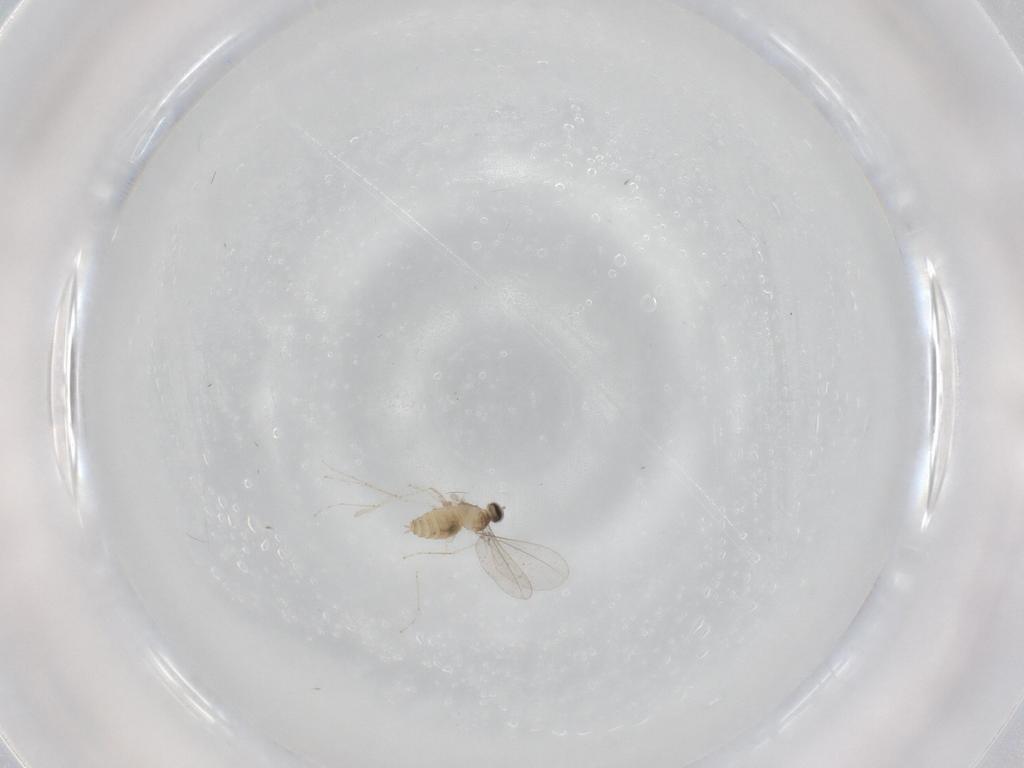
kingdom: Animalia
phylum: Arthropoda
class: Insecta
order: Diptera
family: Cecidomyiidae
